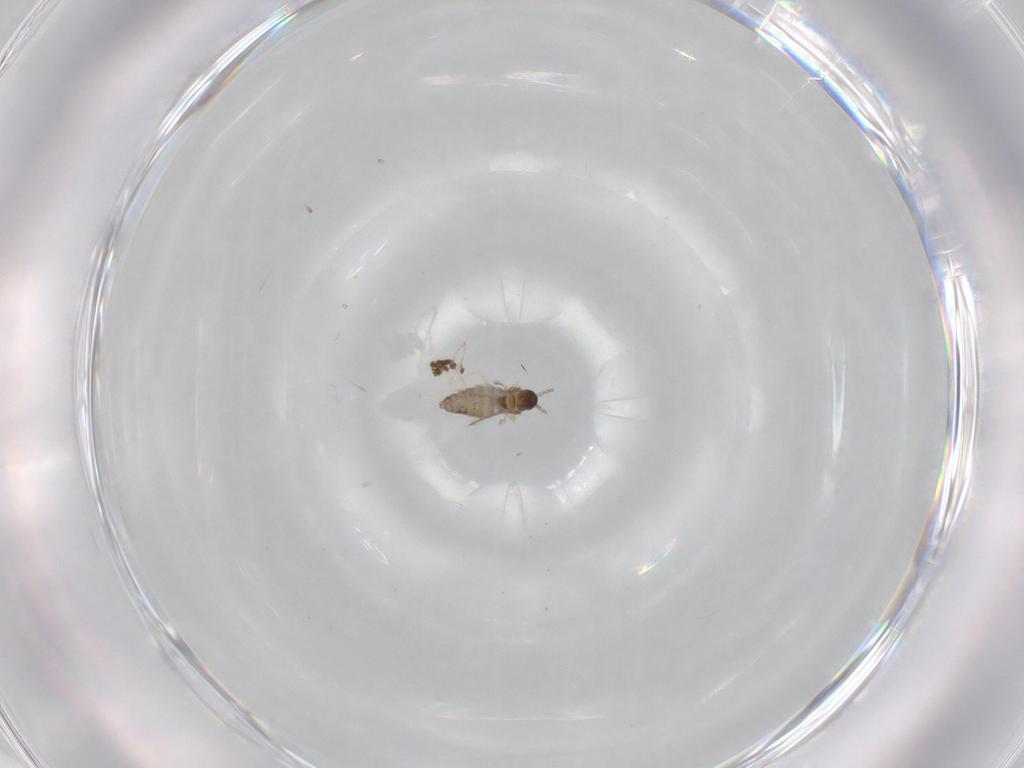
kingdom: Animalia
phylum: Arthropoda
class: Insecta
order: Diptera
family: Cecidomyiidae
